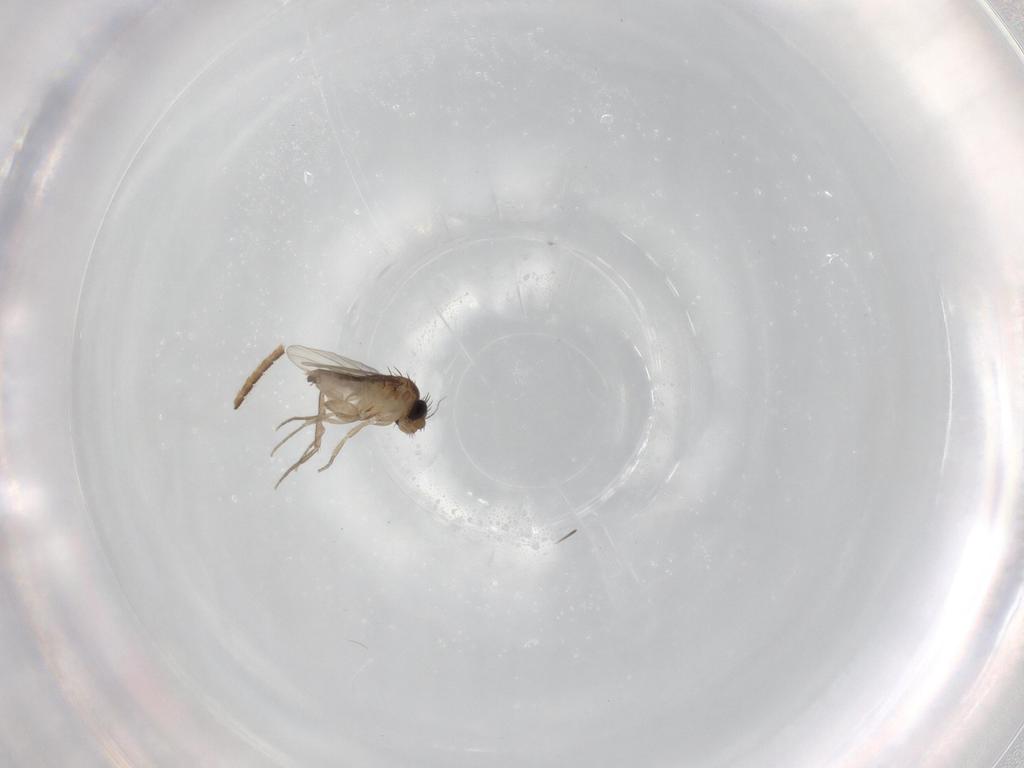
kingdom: Animalia
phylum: Arthropoda
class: Insecta
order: Diptera
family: Phoridae
